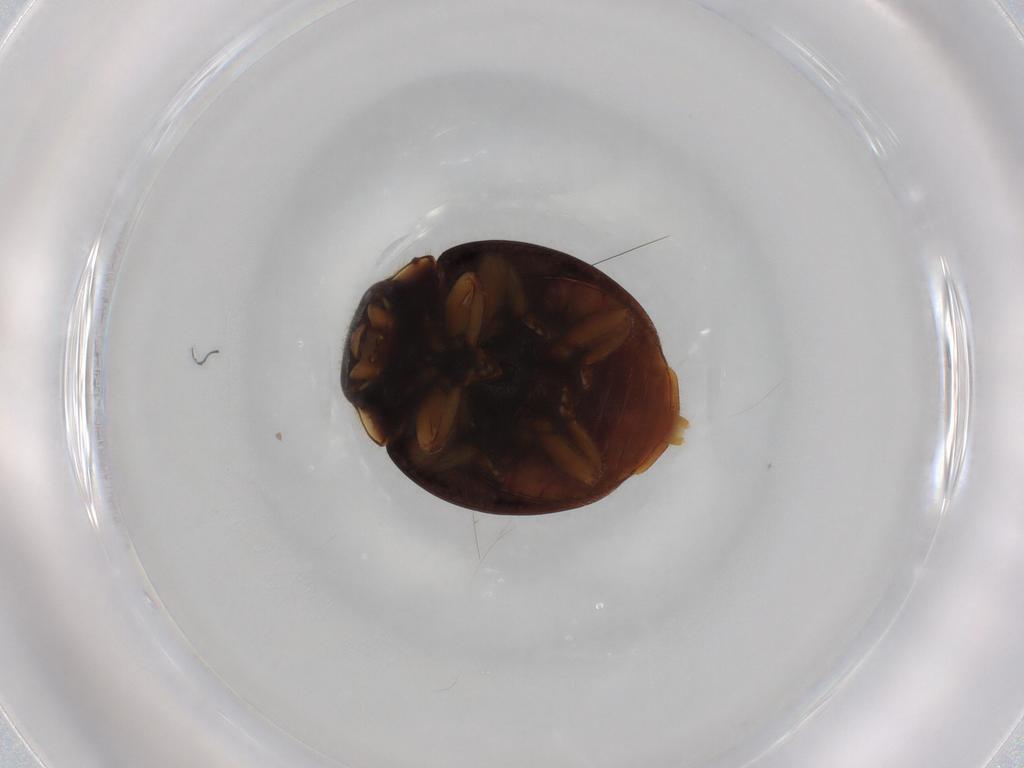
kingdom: Animalia
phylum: Arthropoda
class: Insecta
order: Coleoptera
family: Coccinellidae
